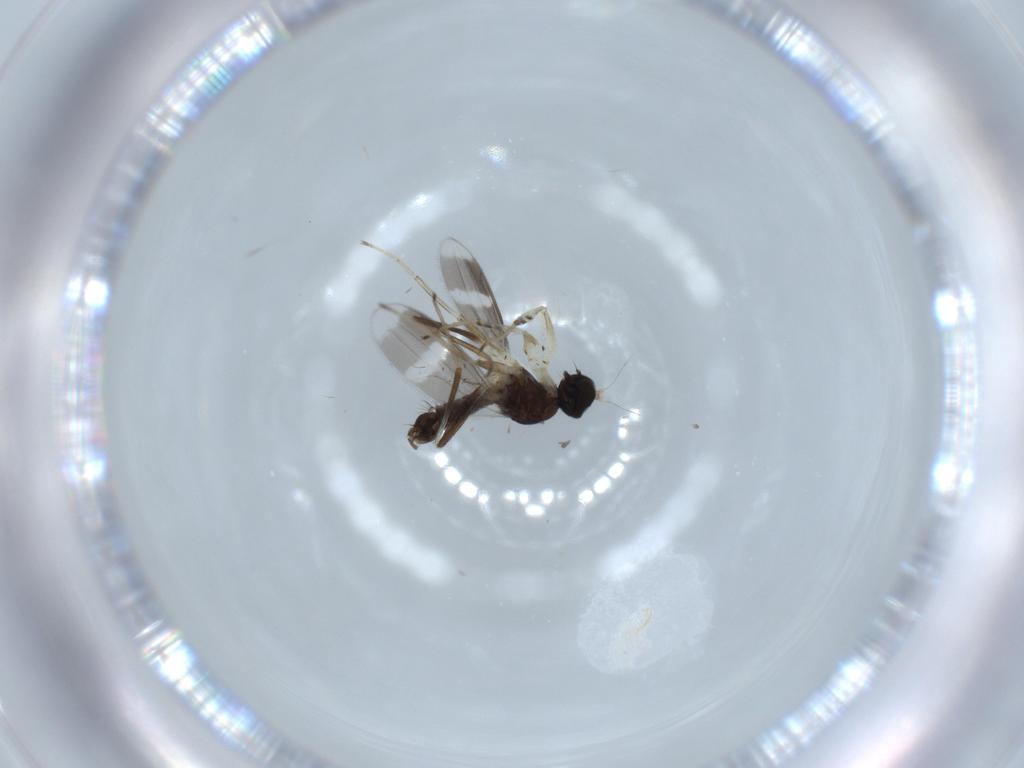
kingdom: Animalia
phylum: Arthropoda
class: Insecta
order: Diptera
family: Hybotidae
